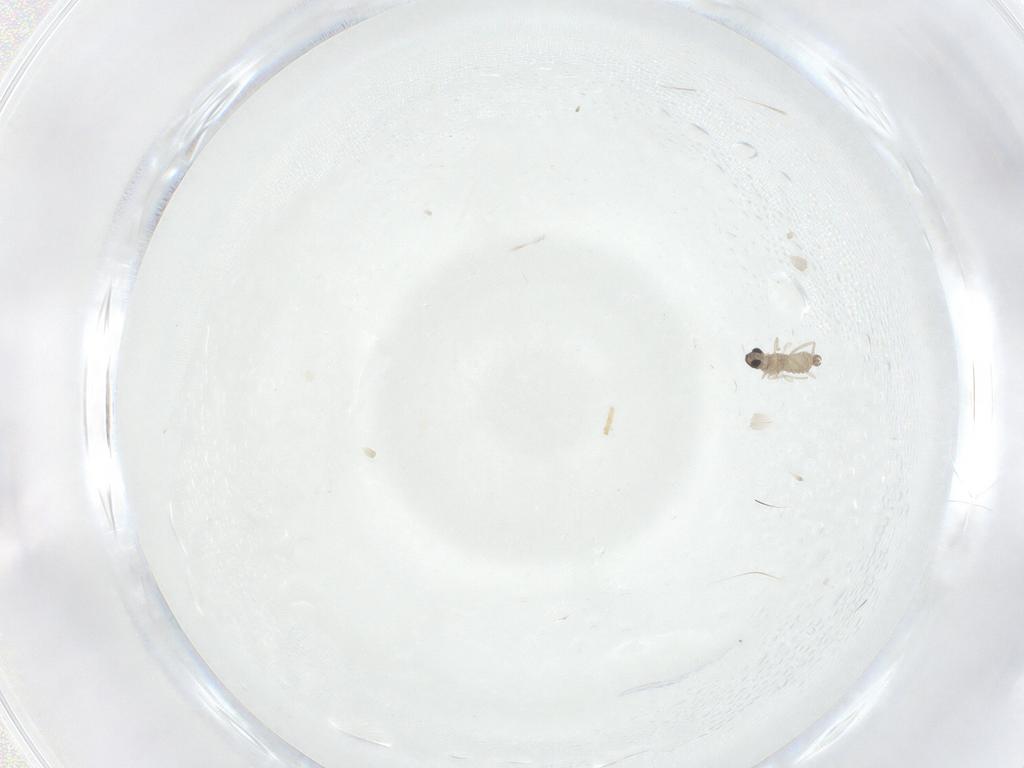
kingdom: Animalia
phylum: Arthropoda
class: Insecta
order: Diptera
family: Cecidomyiidae
